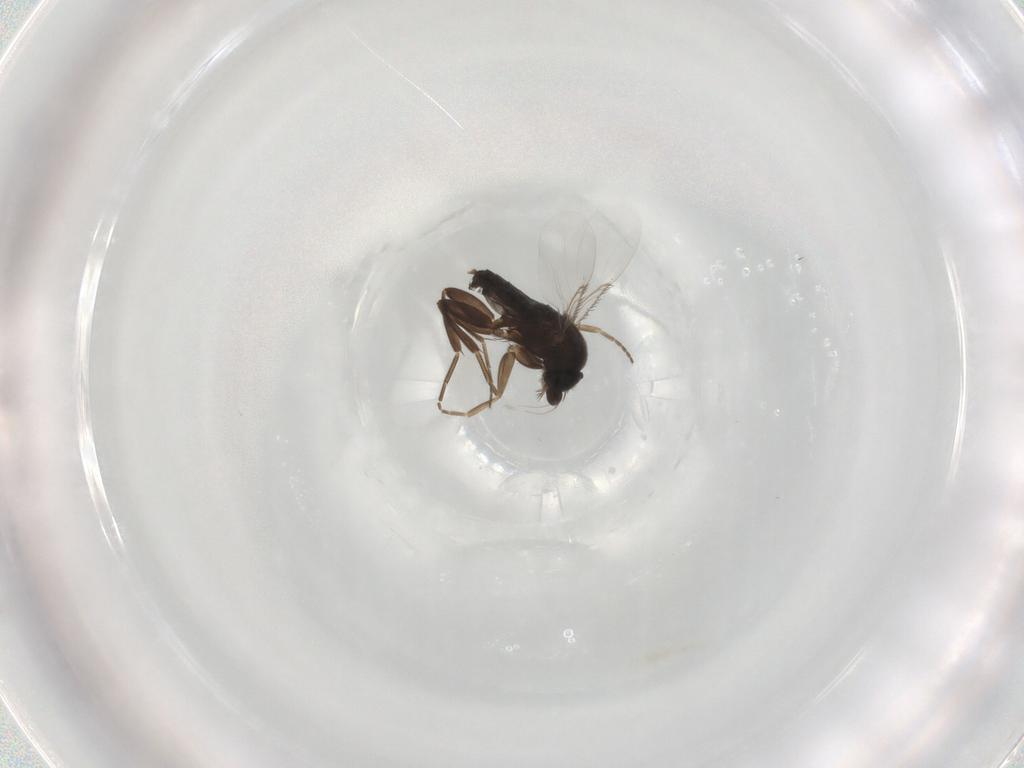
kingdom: Animalia
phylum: Arthropoda
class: Insecta
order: Diptera
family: Phoridae
